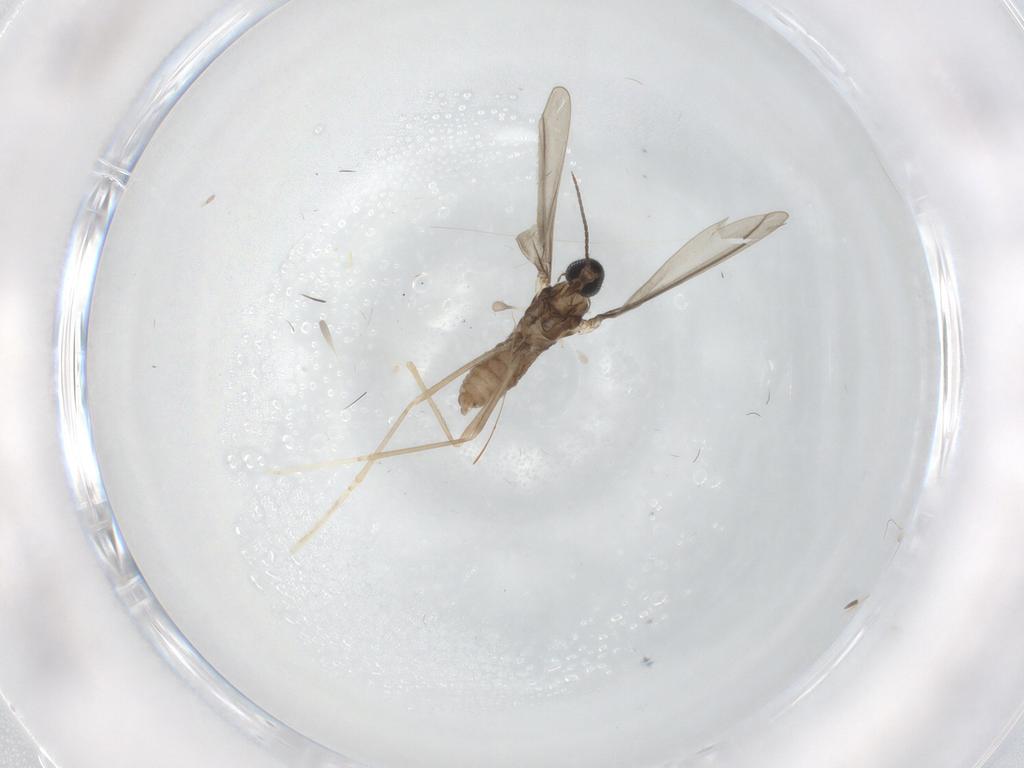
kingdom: Animalia
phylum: Arthropoda
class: Insecta
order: Diptera
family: Cecidomyiidae
